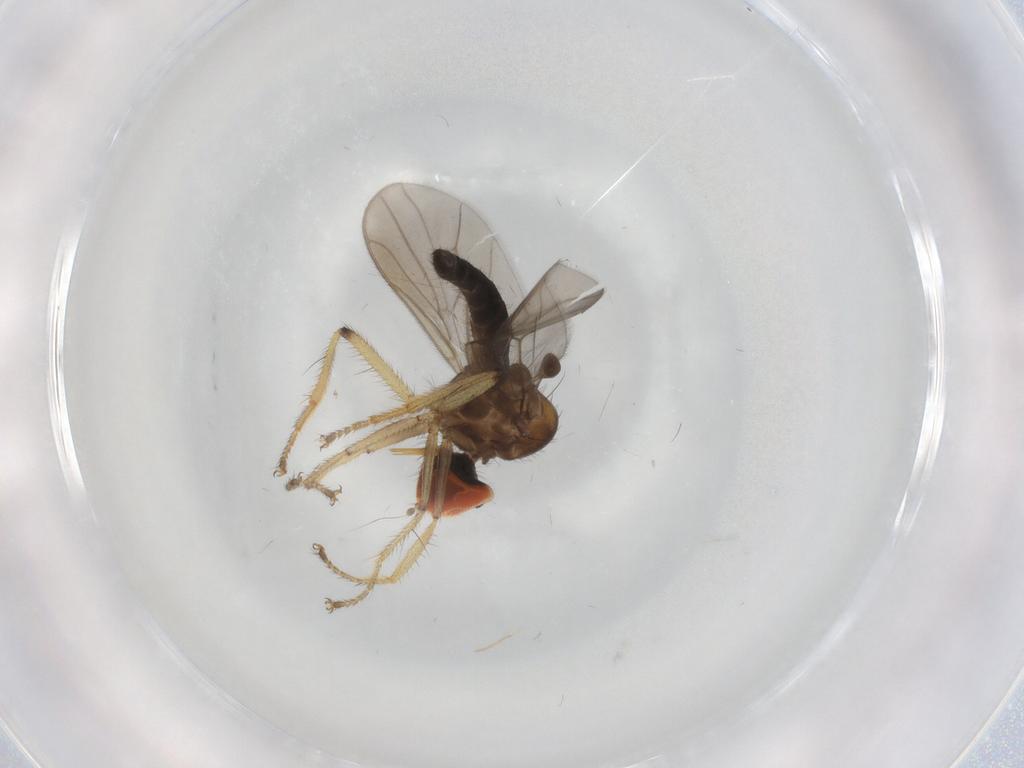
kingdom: Animalia
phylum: Arthropoda
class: Insecta
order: Diptera
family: Hybotidae
